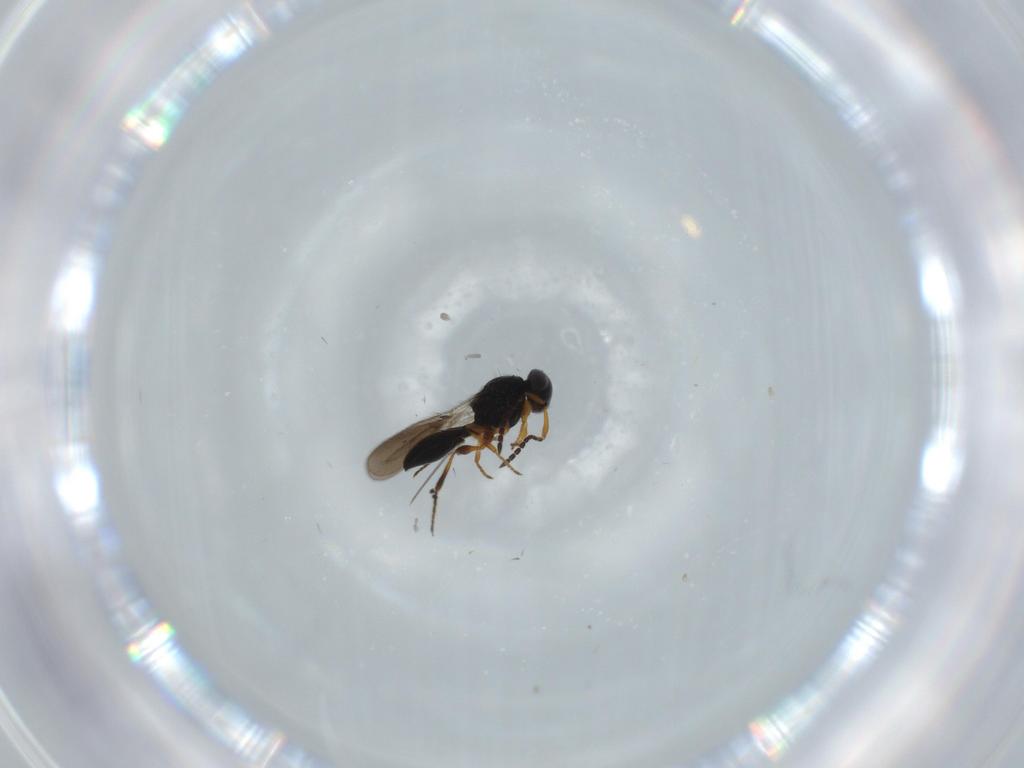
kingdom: Animalia
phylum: Arthropoda
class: Insecta
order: Hymenoptera
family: Platygastridae
